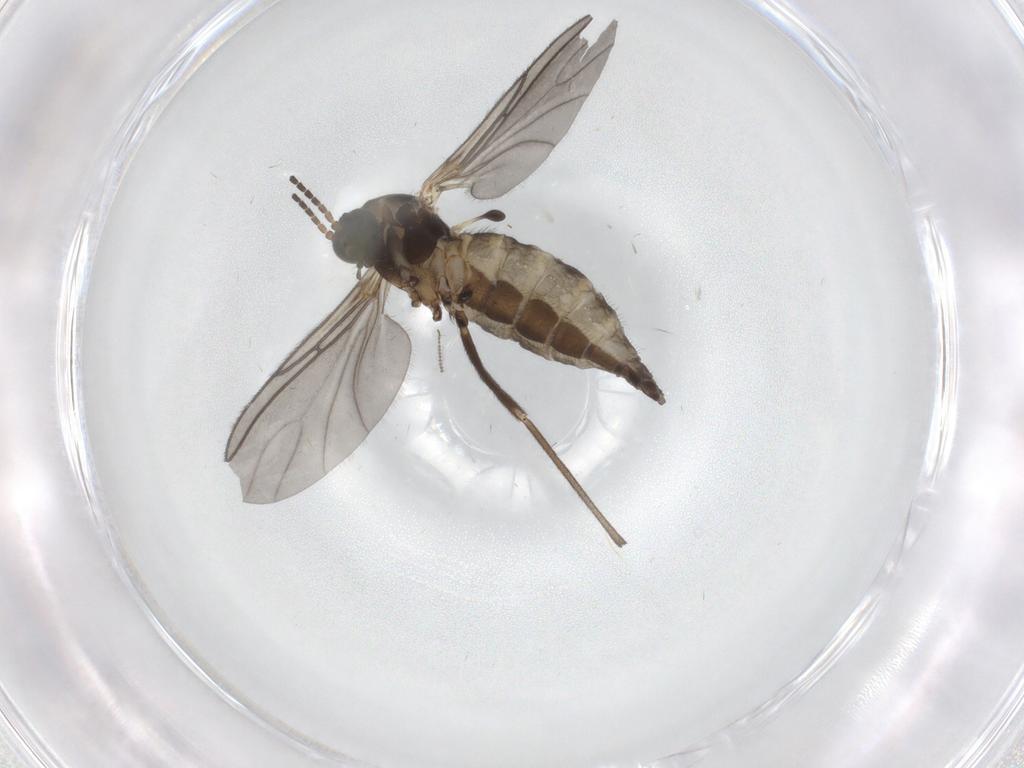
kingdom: Animalia
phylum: Arthropoda
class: Insecta
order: Diptera
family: Sciaridae
